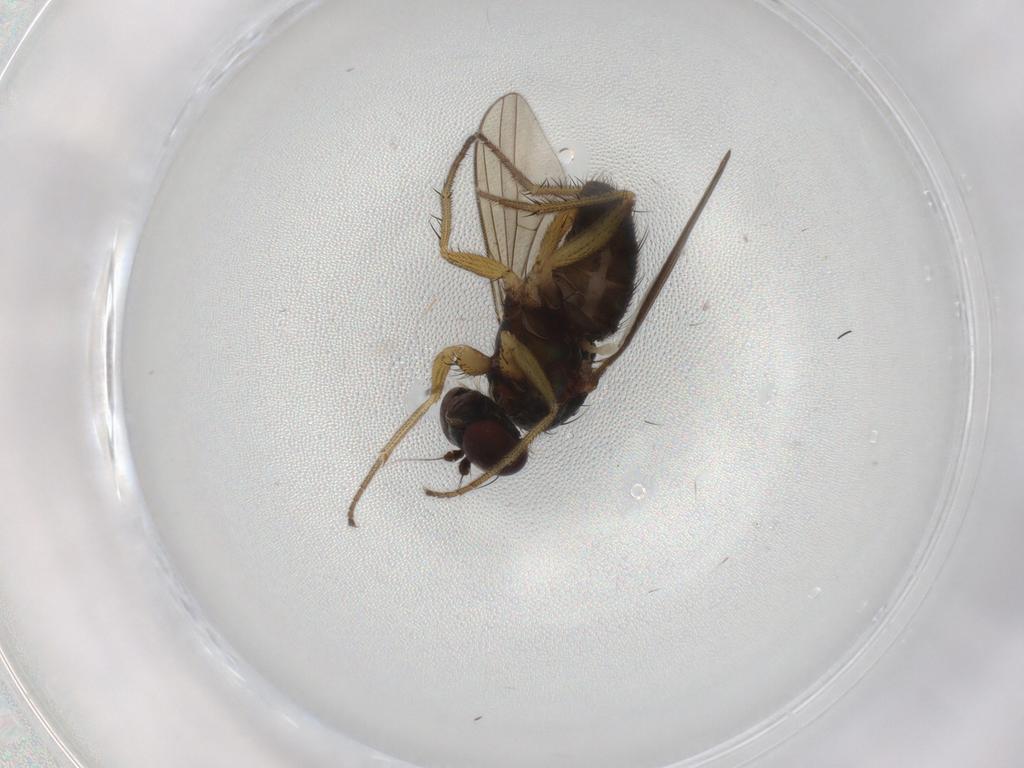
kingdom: Animalia
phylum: Arthropoda
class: Insecta
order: Diptera
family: Dolichopodidae
